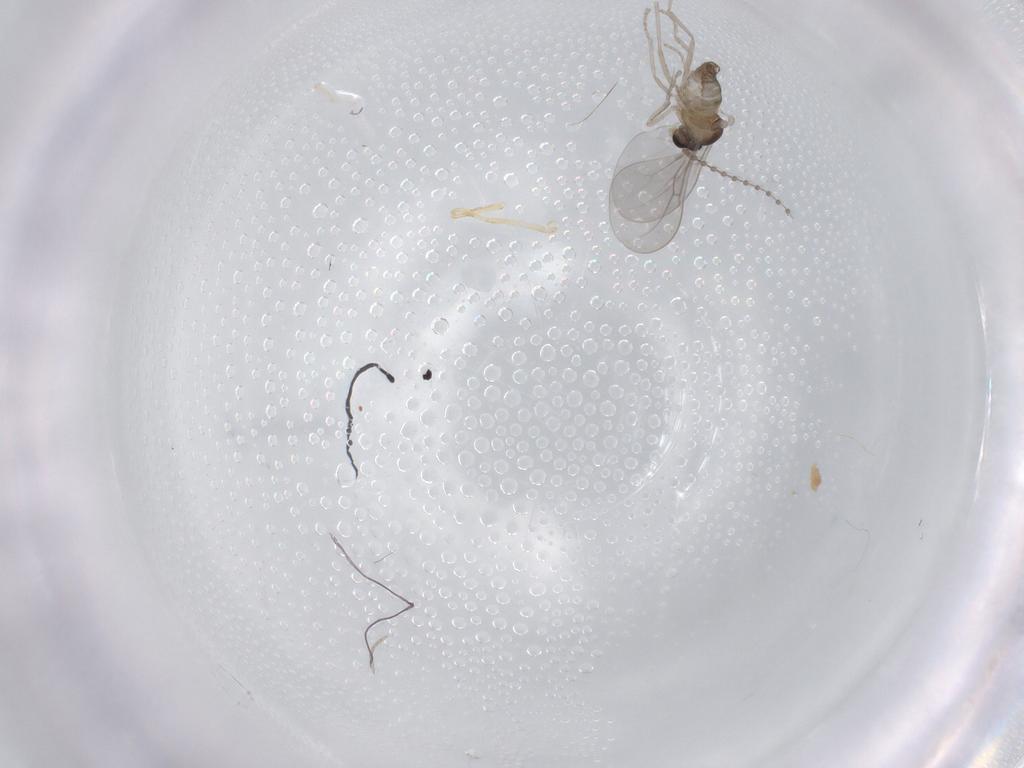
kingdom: Animalia
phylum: Arthropoda
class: Insecta
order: Diptera
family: Cecidomyiidae
